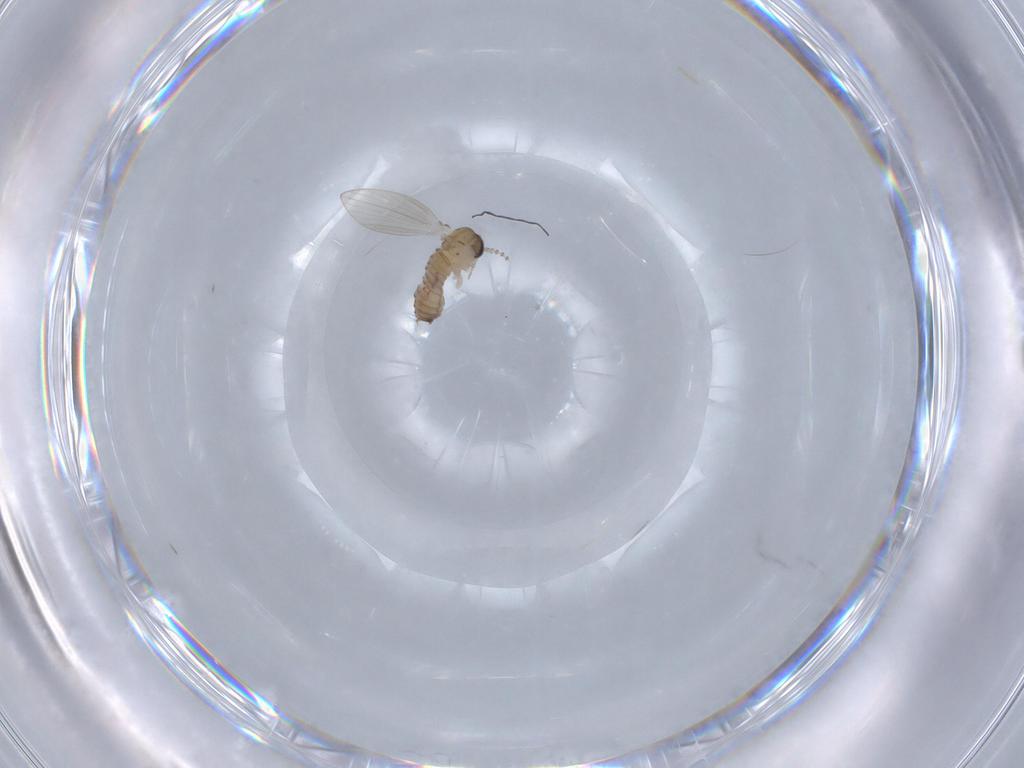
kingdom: Animalia
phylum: Arthropoda
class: Insecta
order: Diptera
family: Psychodidae
